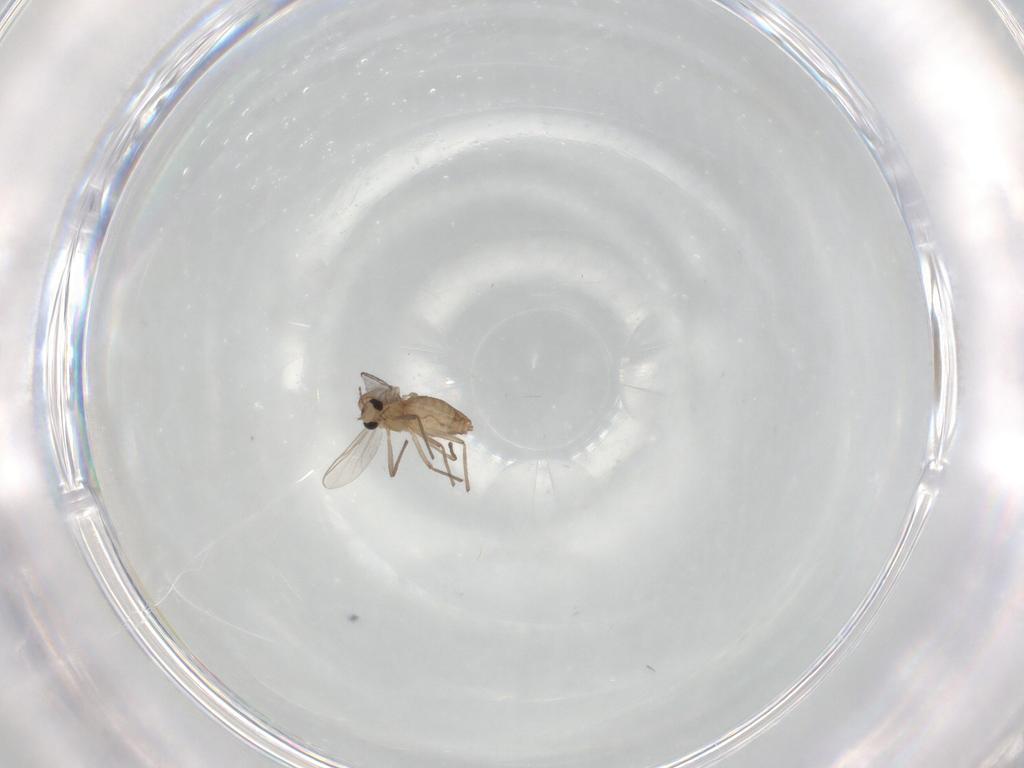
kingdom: Animalia
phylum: Arthropoda
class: Insecta
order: Diptera
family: Chironomidae
